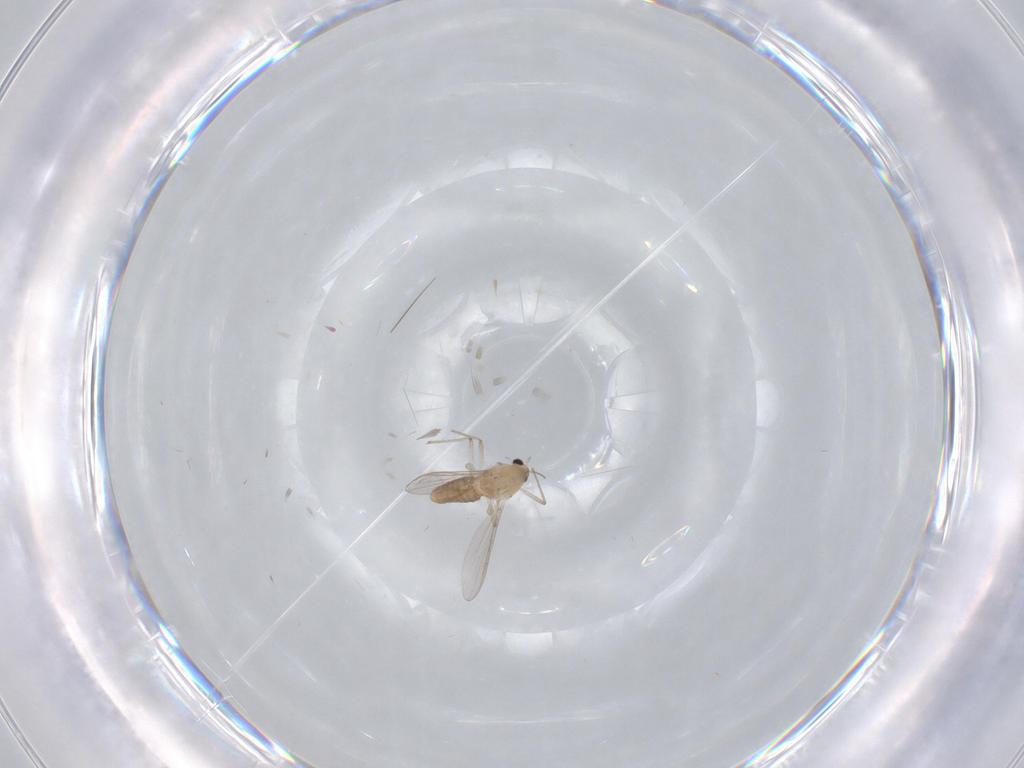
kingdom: Animalia
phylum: Arthropoda
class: Insecta
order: Diptera
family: Chironomidae
